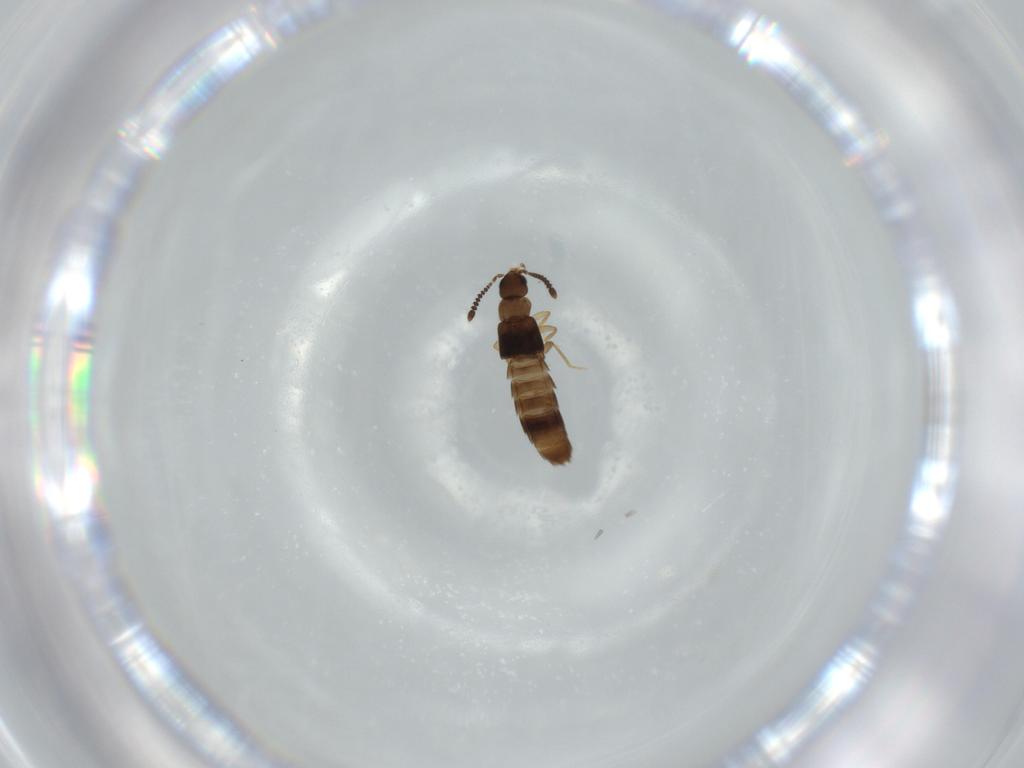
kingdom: Animalia
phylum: Arthropoda
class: Insecta
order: Coleoptera
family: Staphylinidae
